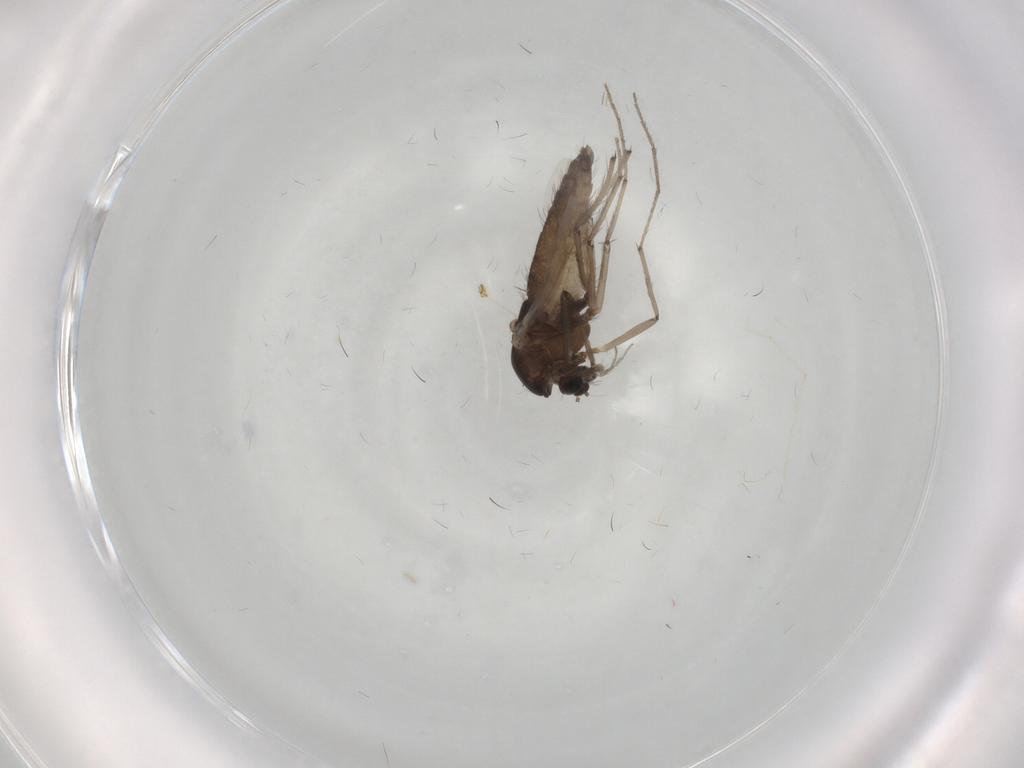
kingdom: Animalia
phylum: Arthropoda
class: Insecta
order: Diptera
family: Chironomidae
